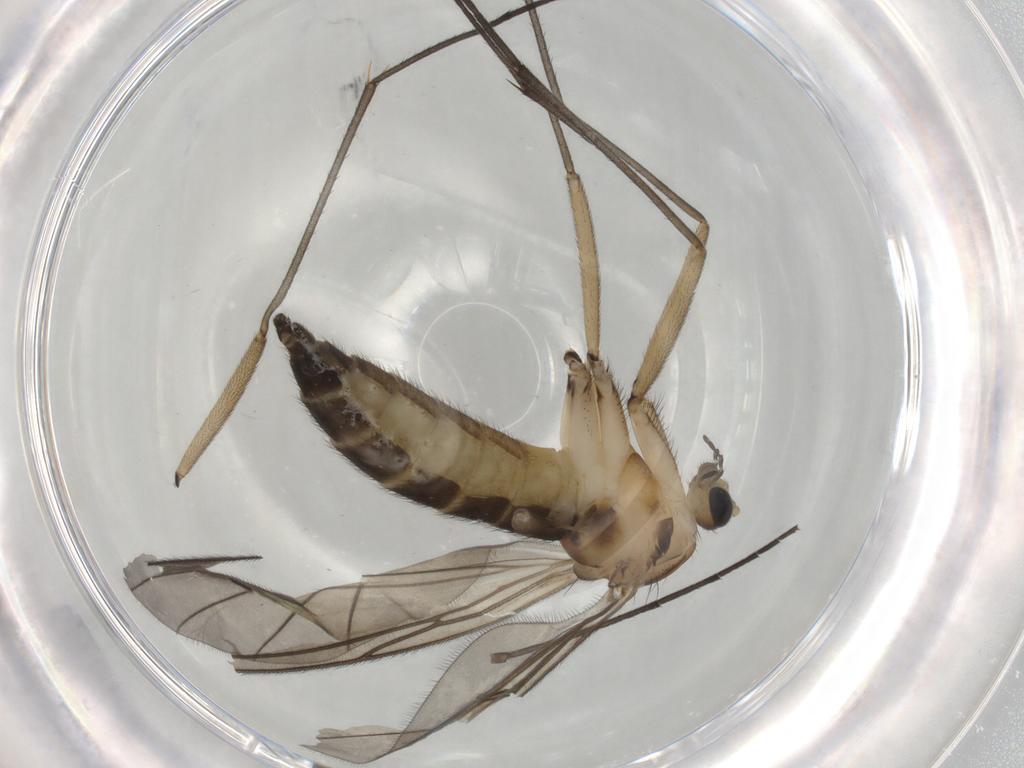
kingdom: Animalia
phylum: Arthropoda
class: Insecta
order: Diptera
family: Sciaridae
